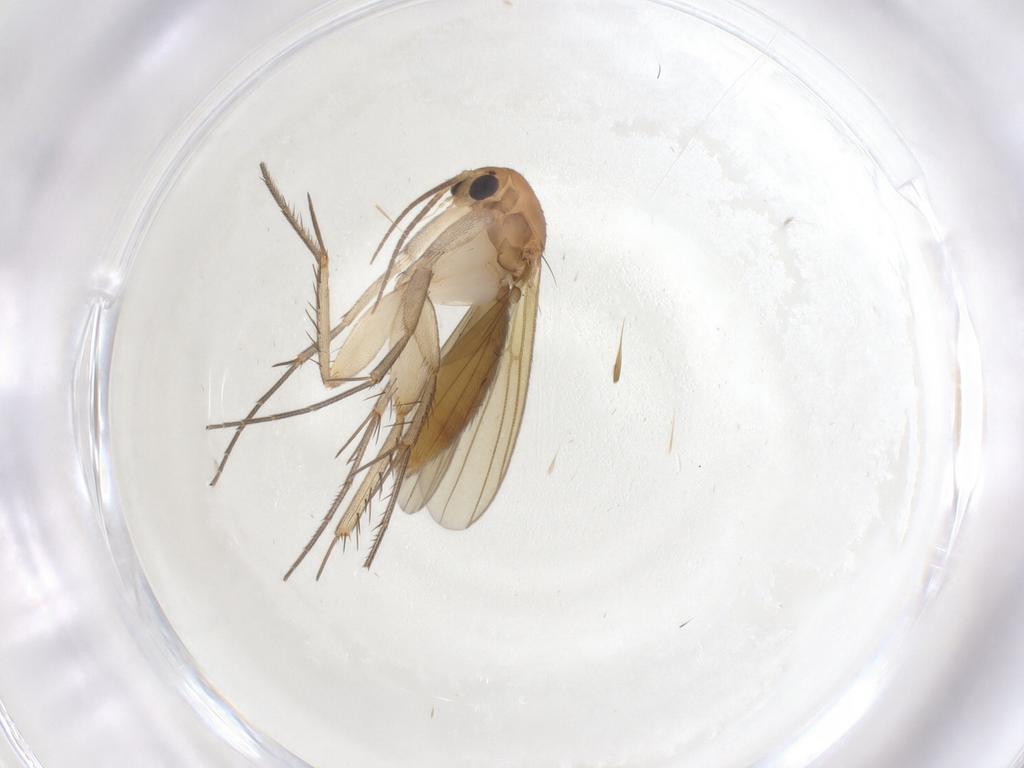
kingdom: Animalia
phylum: Arthropoda
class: Insecta
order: Diptera
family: Mycetophilidae
